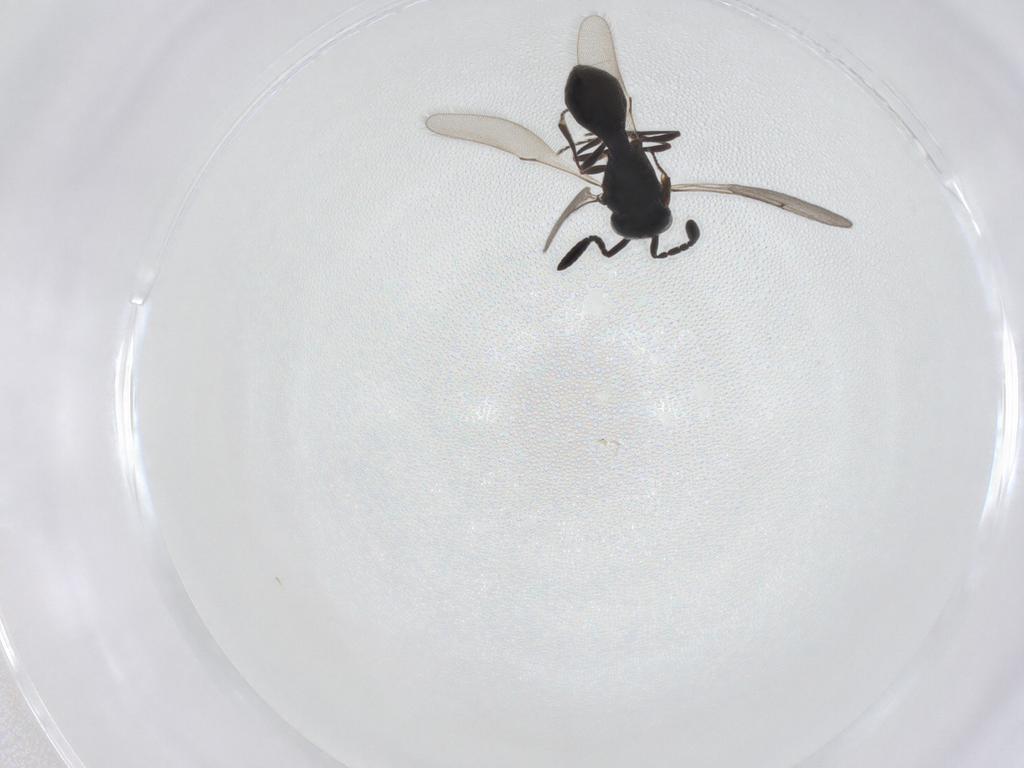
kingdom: Animalia
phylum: Arthropoda
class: Insecta
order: Hymenoptera
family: Scelionidae
